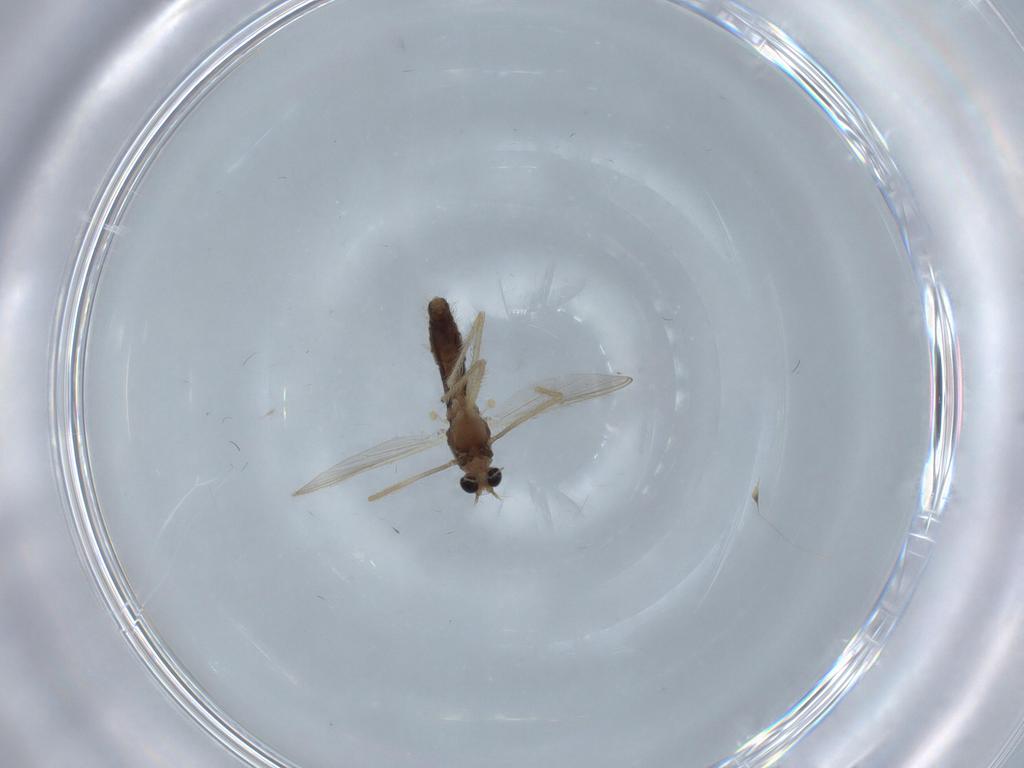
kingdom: Animalia
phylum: Arthropoda
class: Insecta
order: Diptera
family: Chironomidae
